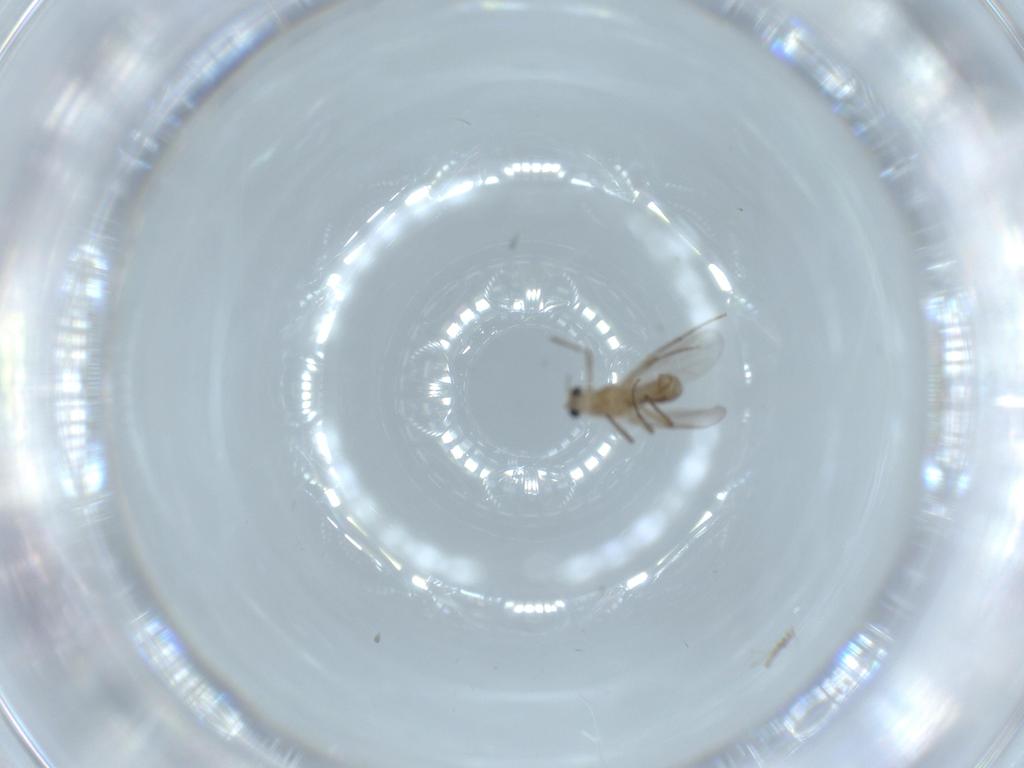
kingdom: Animalia
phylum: Arthropoda
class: Insecta
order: Diptera
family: Chironomidae
